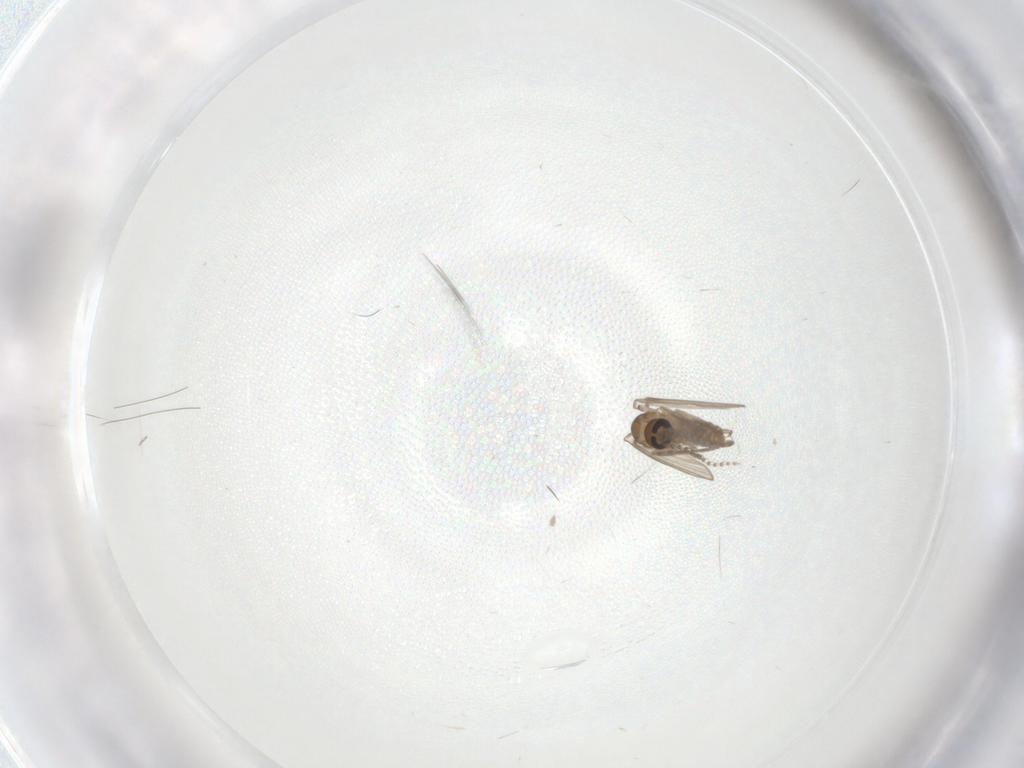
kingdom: Animalia
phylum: Arthropoda
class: Insecta
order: Diptera
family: Psychodidae
